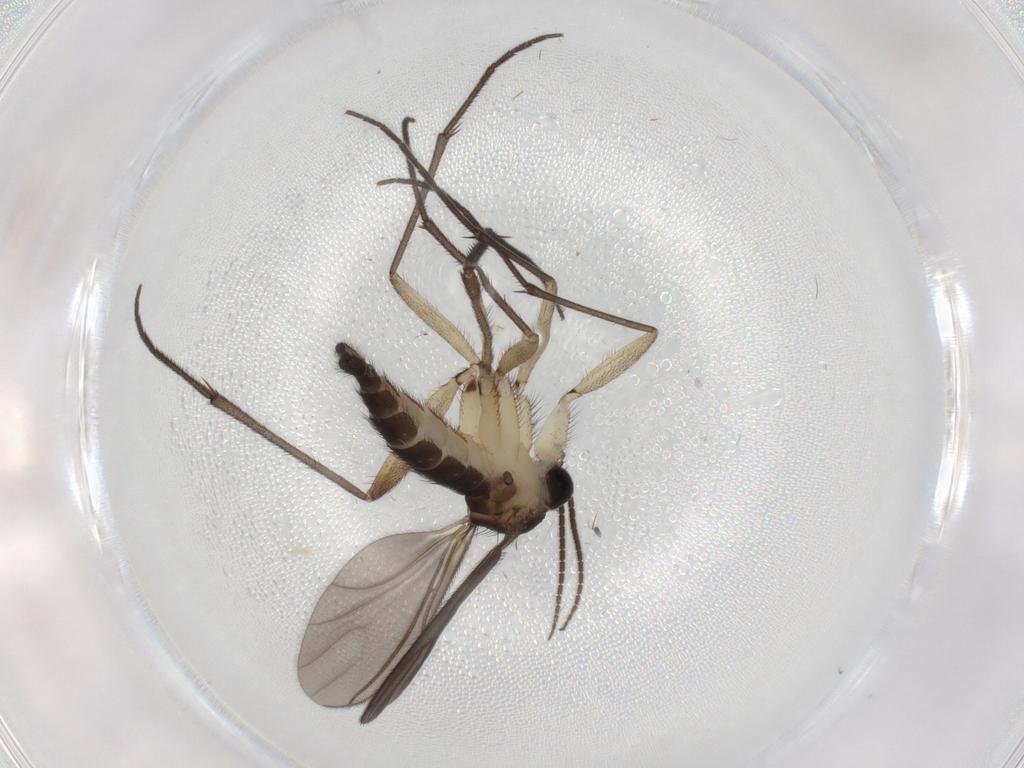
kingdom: Animalia
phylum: Arthropoda
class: Insecta
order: Diptera
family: Sciaridae
